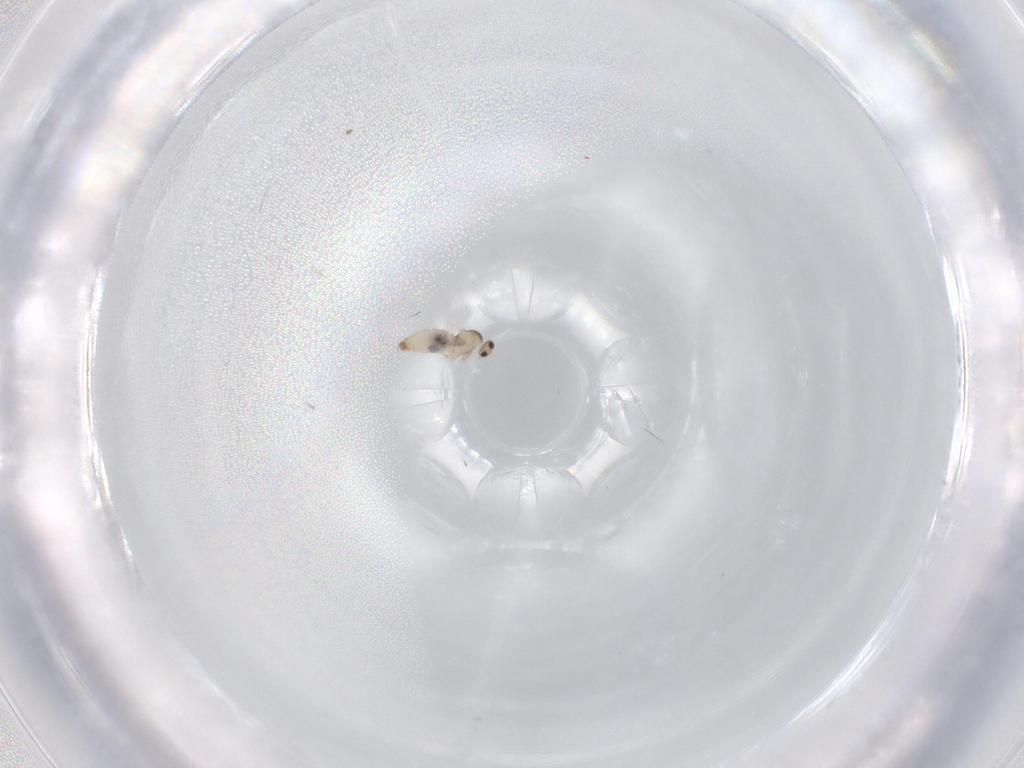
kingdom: Animalia
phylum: Arthropoda
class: Insecta
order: Diptera
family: Cecidomyiidae
